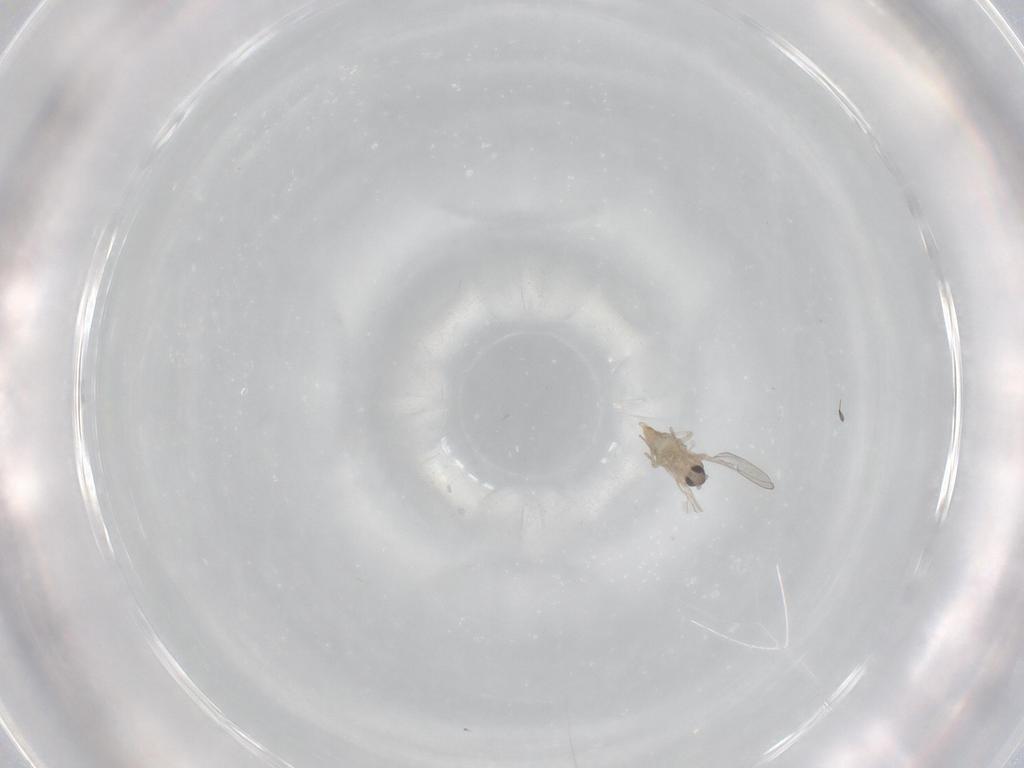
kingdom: Animalia
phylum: Arthropoda
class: Insecta
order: Diptera
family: Phoridae
